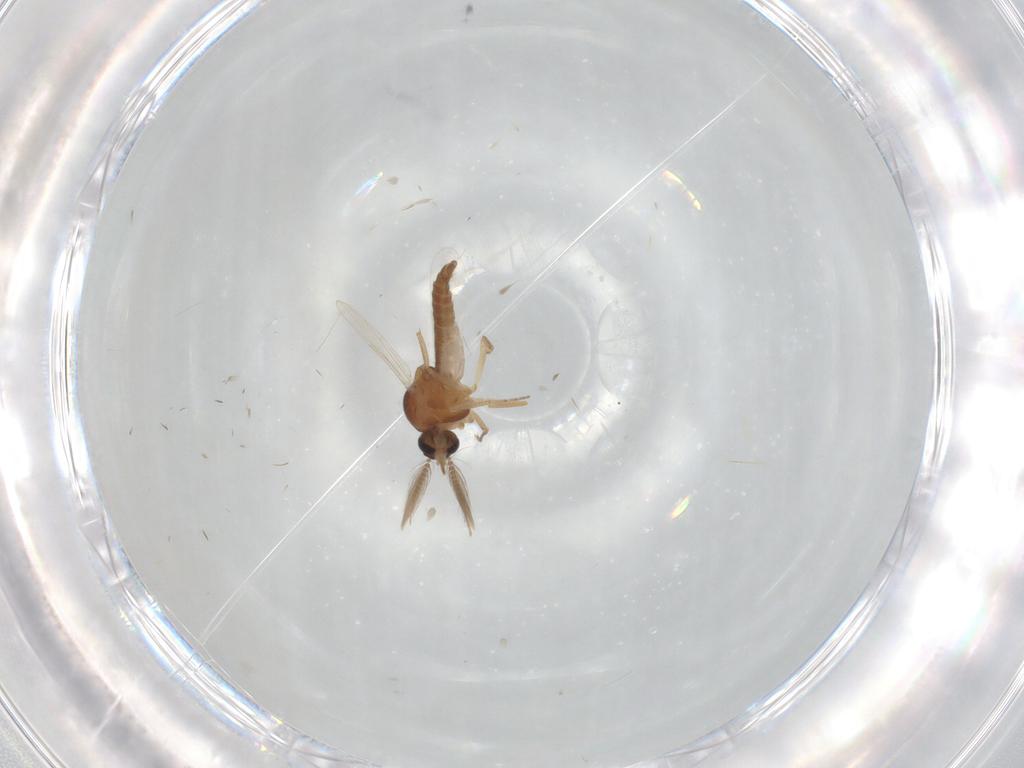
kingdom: Animalia
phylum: Arthropoda
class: Insecta
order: Diptera
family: Ceratopogonidae
